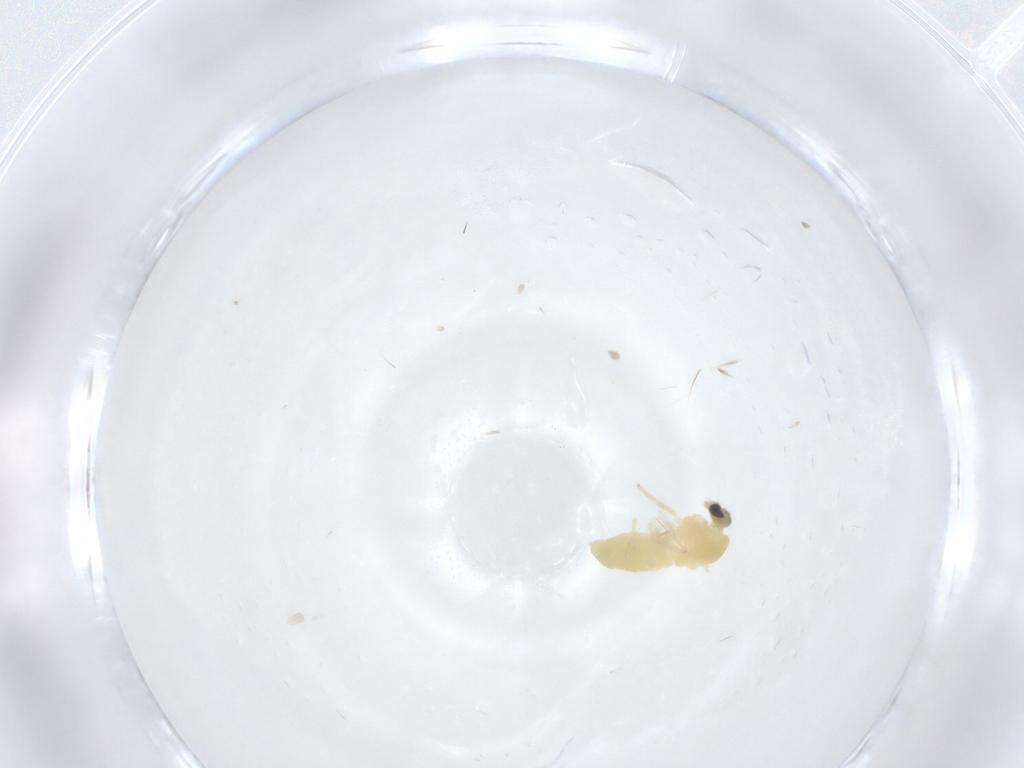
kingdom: Animalia
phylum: Arthropoda
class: Insecta
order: Diptera
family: Chironomidae
